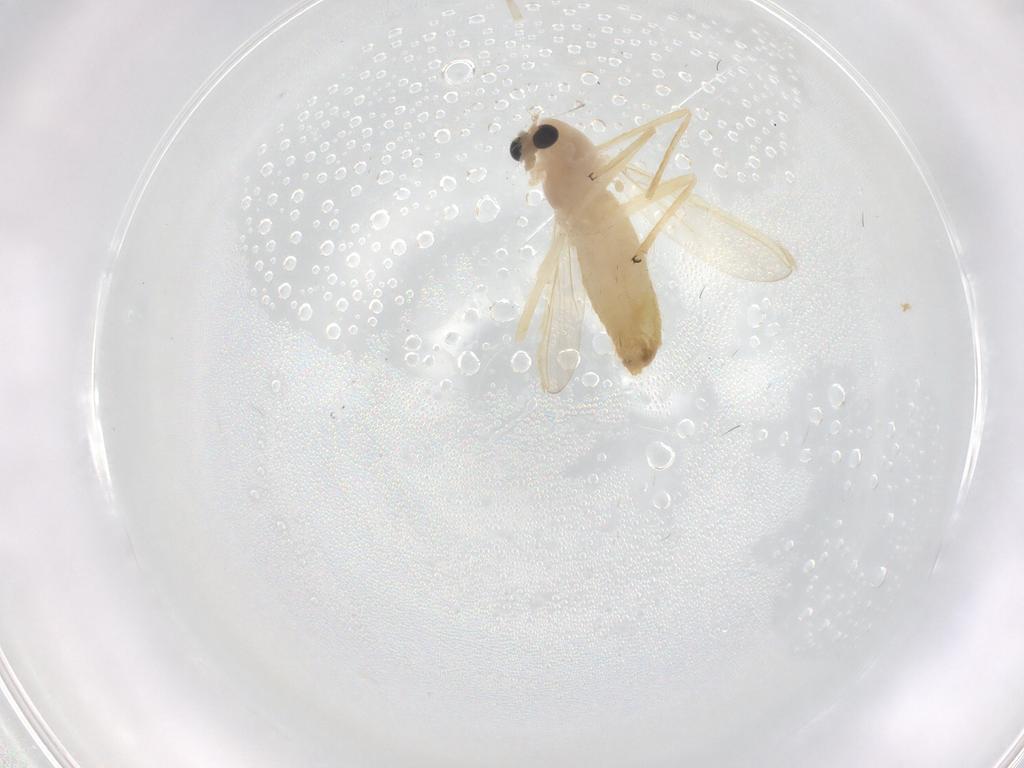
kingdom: Animalia
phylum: Arthropoda
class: Insecta
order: Diptera
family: Chironomidae
